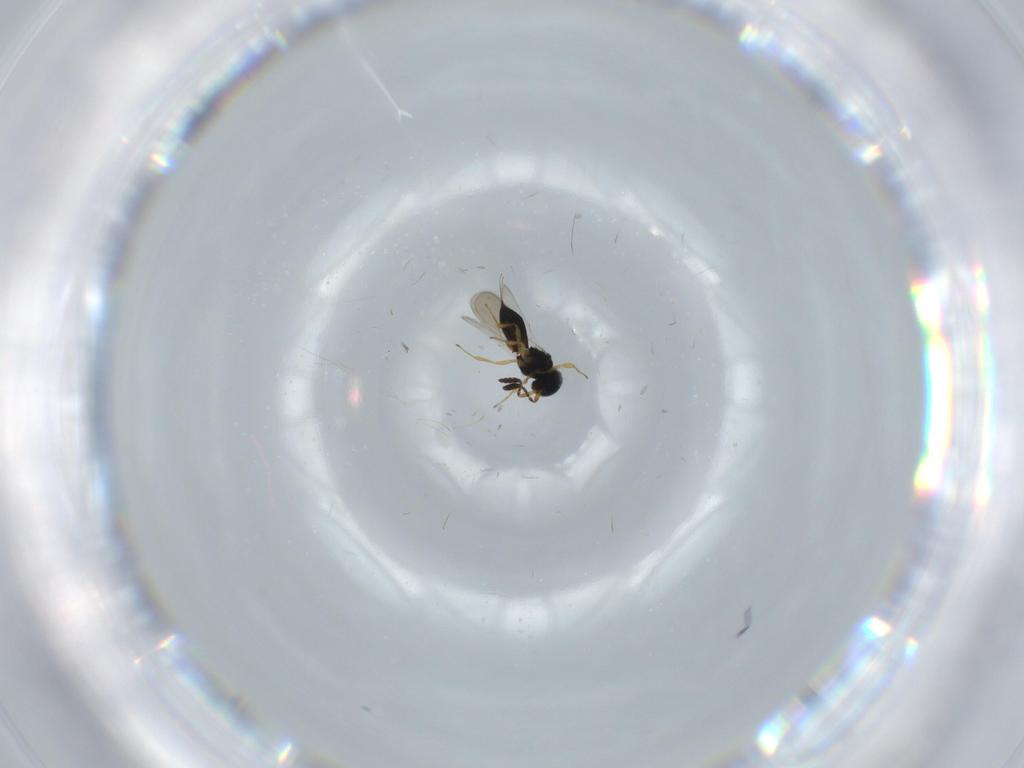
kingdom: Animalia
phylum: Arthropoda
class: Insecta
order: Hymenoptera
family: Scelionidae
